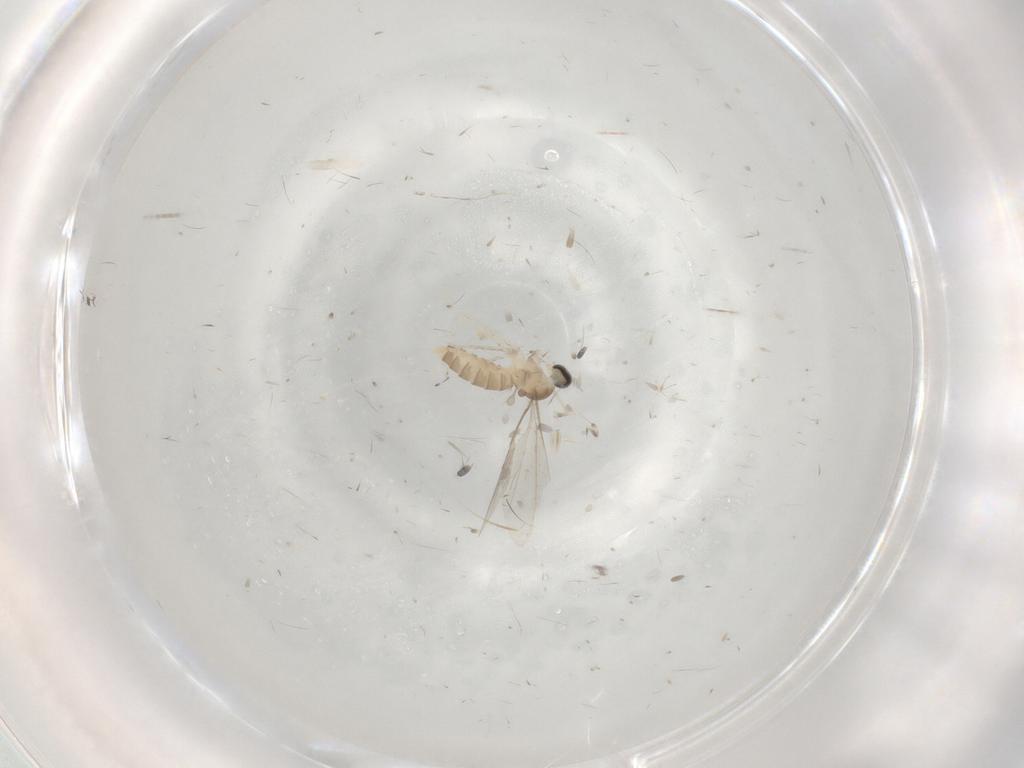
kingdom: Animalia
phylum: Arthropoda
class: Insecta
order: Diptera
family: Cecidomyiidae
